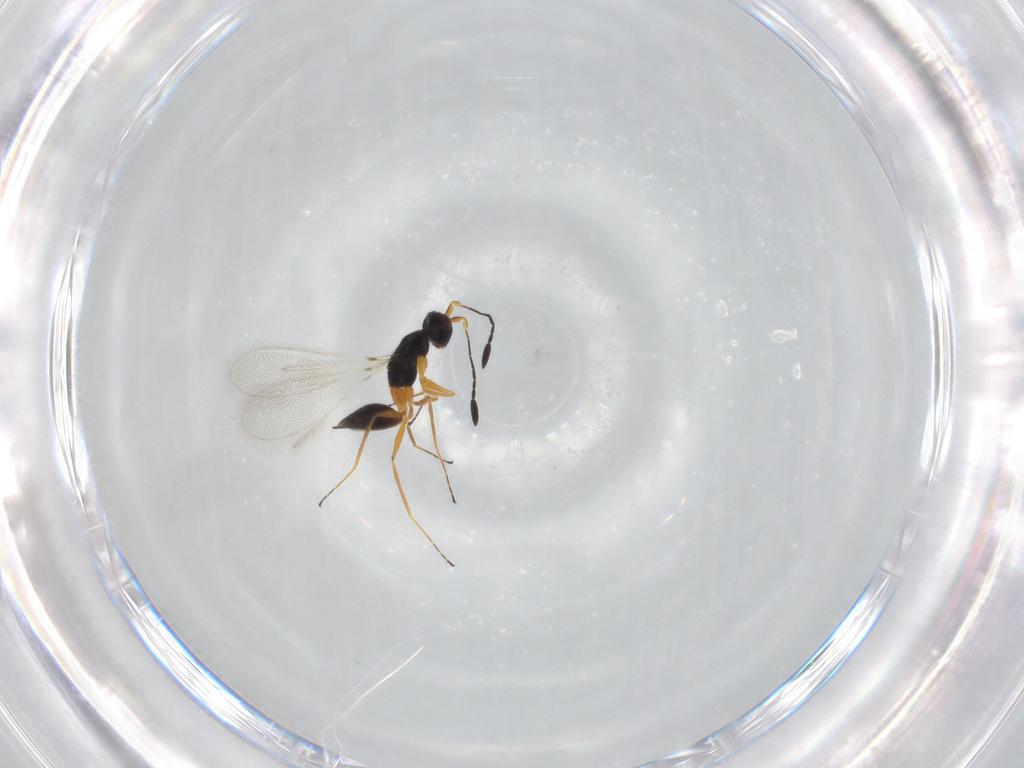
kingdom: Animalia
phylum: Arthropoda
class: Insecta
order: Hymenoptera
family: Mymaridae
